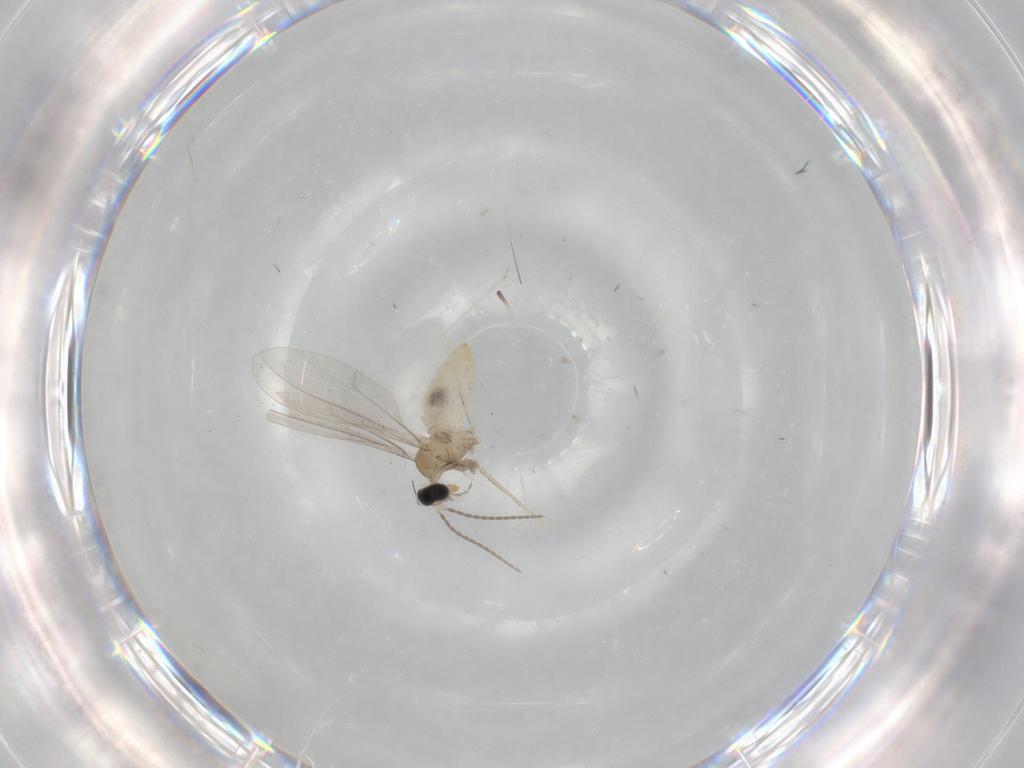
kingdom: Animalia
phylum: Arthropoda
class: Insecta
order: Diptera
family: Cecidomyiidae
